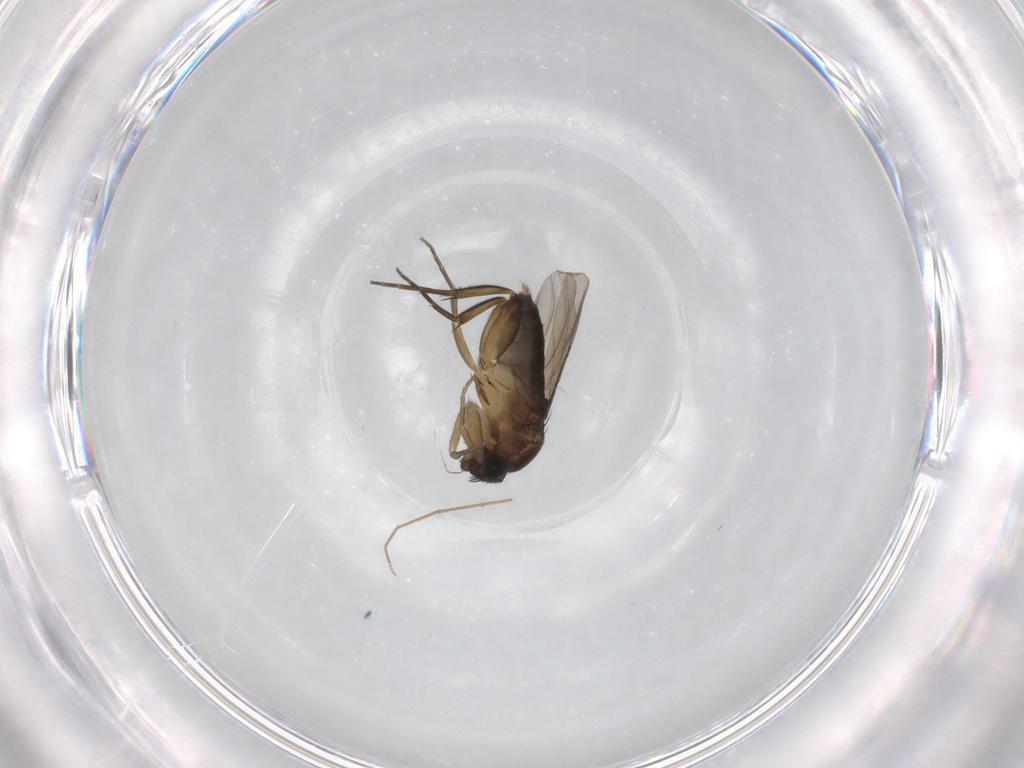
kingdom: Animalia
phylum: Arthropoda
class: Insecta
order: Diptera
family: Phoridae
